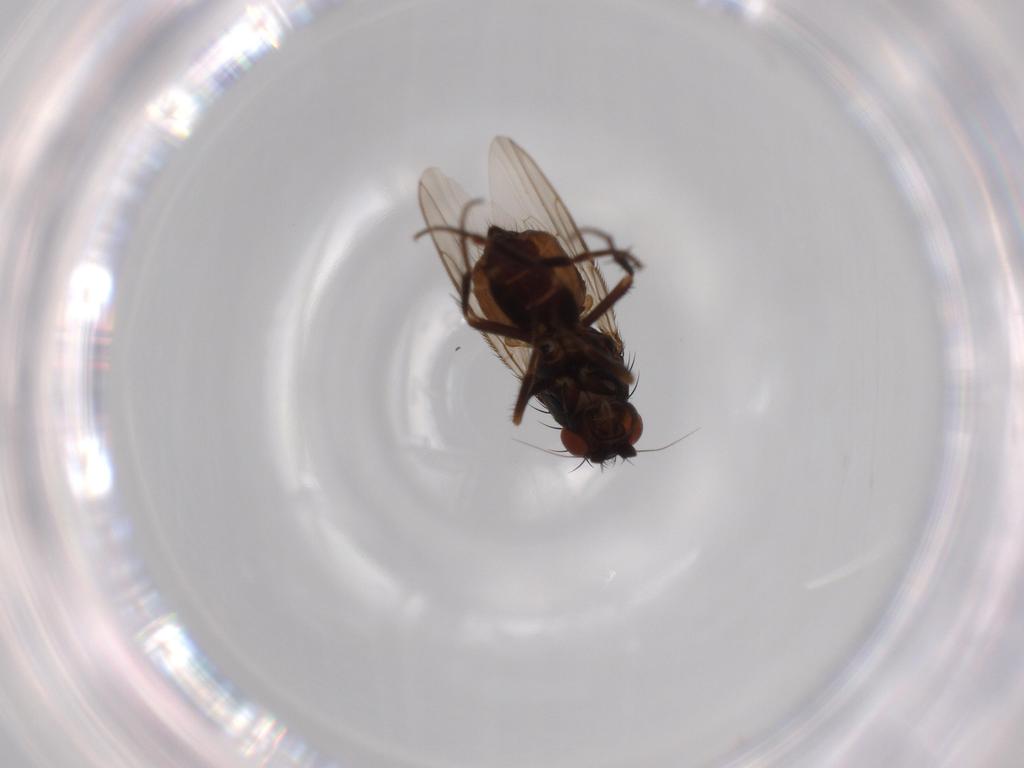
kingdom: Animalia
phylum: Arthropoda
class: Insecta
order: Diptera
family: Sphaeroceridae
